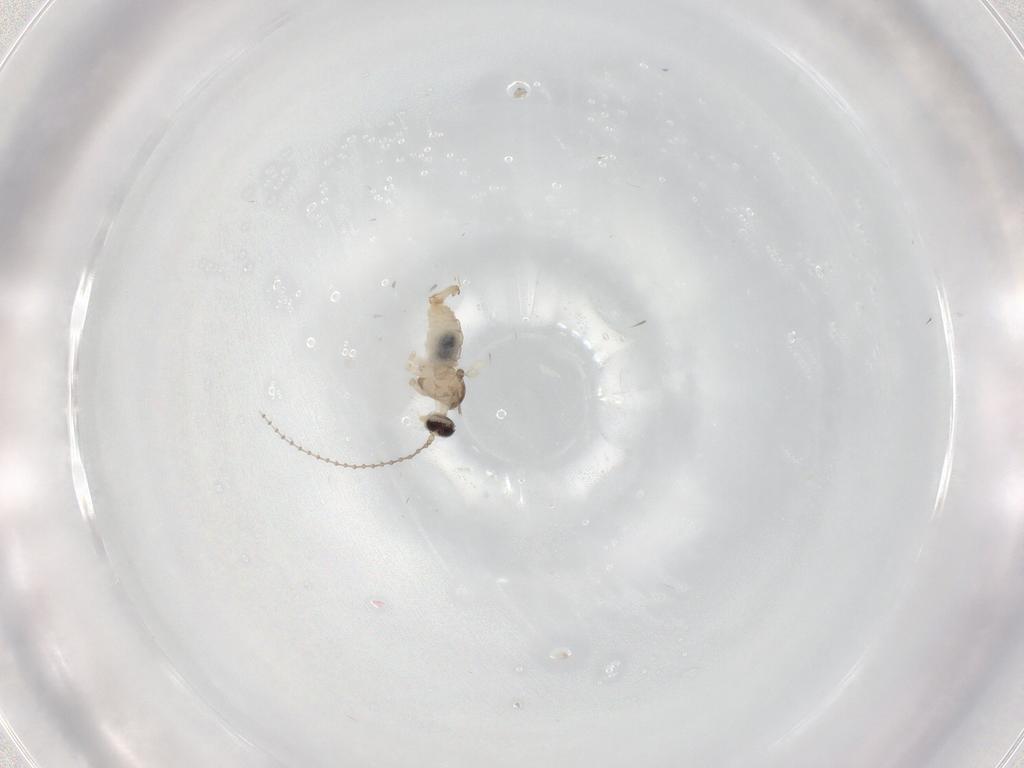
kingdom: Animalia
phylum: Arthropoda
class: Insecta
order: Diptera
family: Cecidomyiidae
